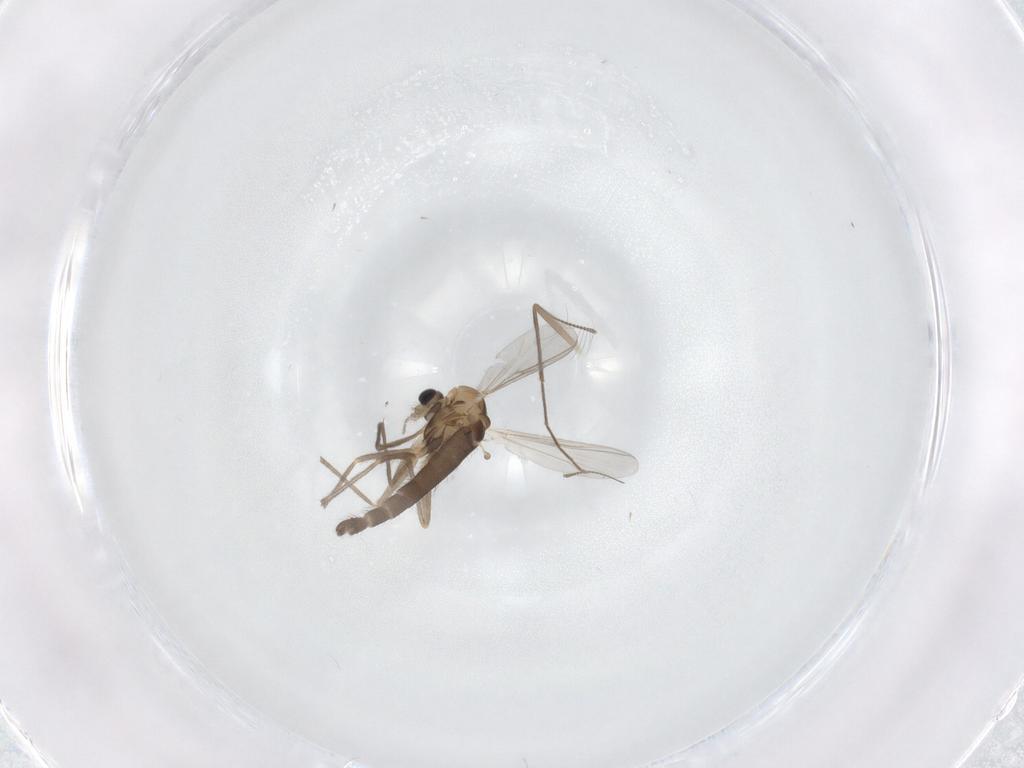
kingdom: Animalia
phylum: Arthropoda
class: Insecta
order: Diptera
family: Chironomidae
